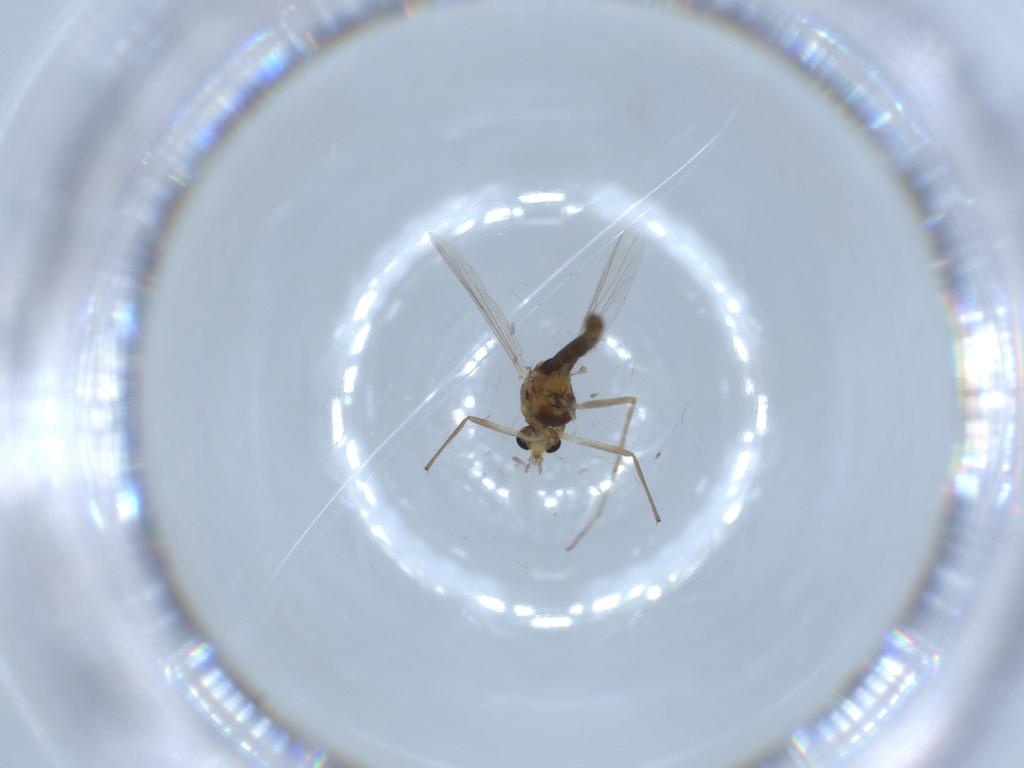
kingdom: Animalia
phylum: Arthropoda
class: Insecta
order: Diptera
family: Chironomidae
